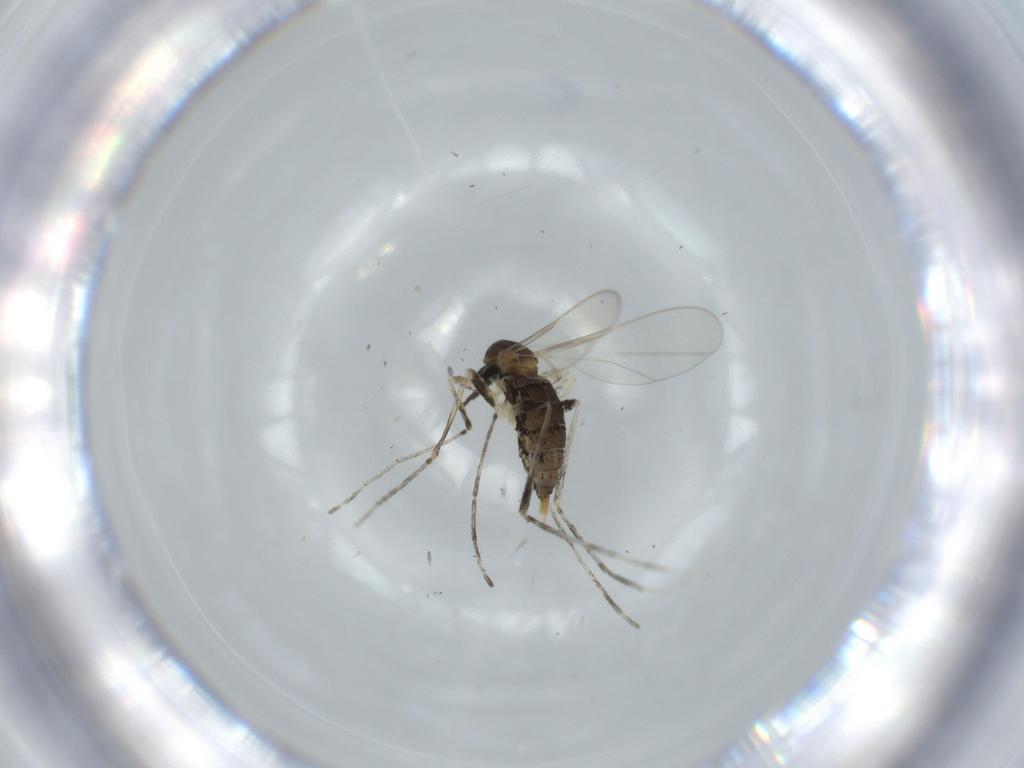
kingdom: Animalia
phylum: Arthropoda
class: Insecta
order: Diptera
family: Cecidomyiidae
